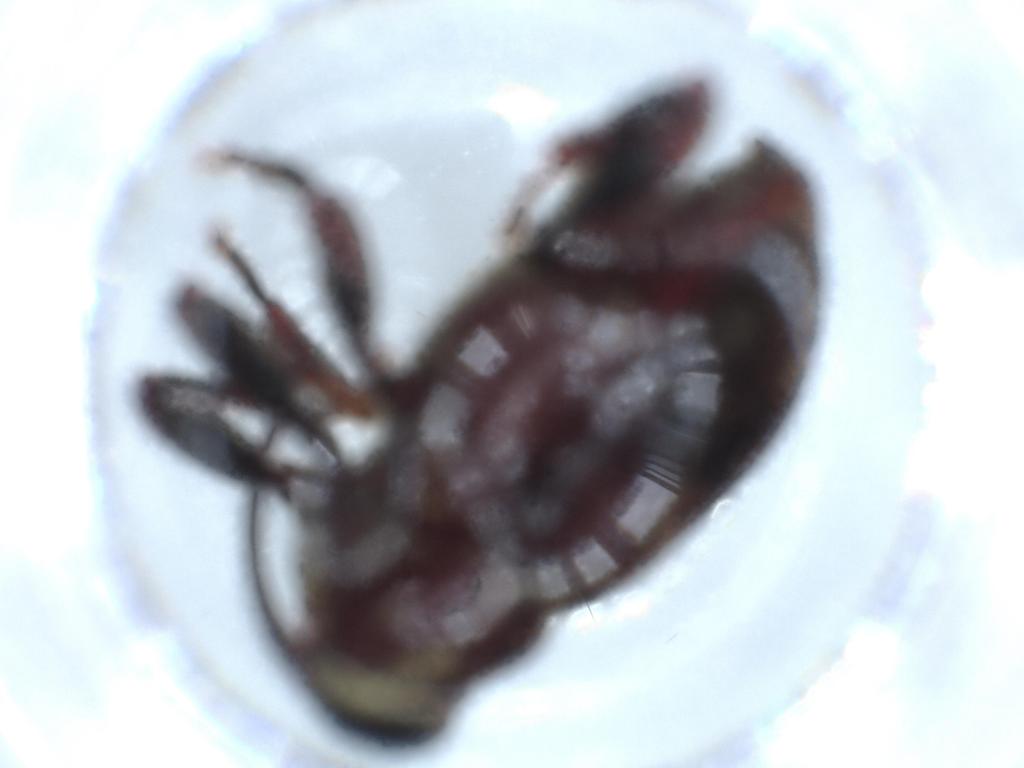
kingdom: Animalia
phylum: Arthropoda
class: Insecta
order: Coleoptera
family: Curculionidae
